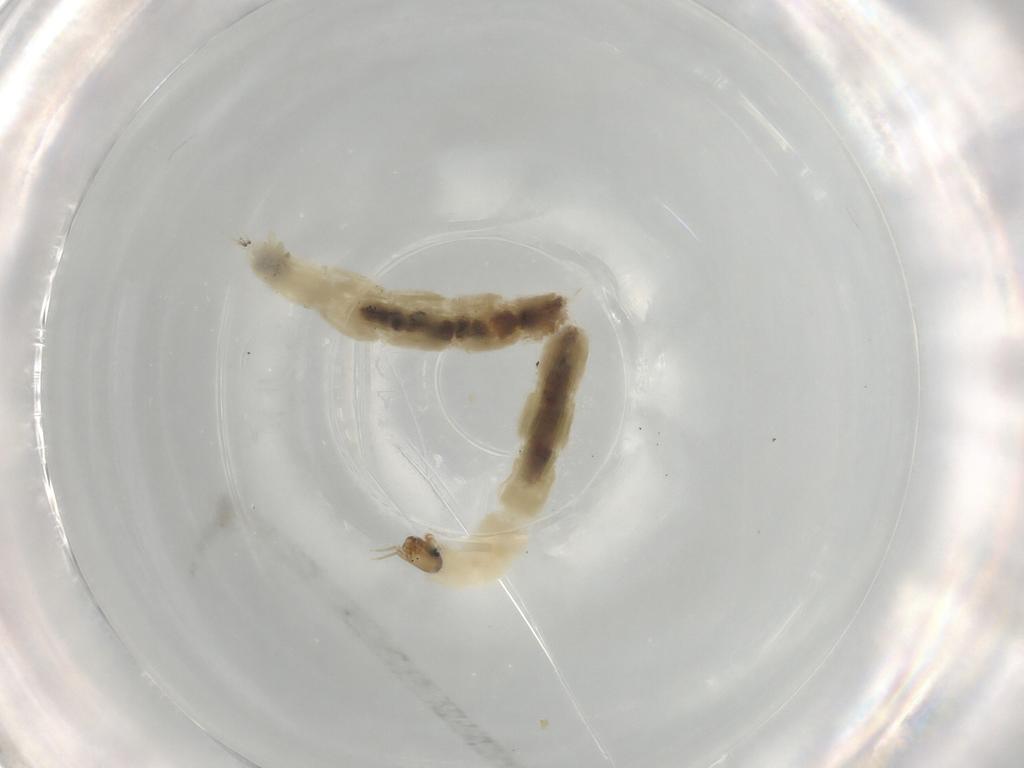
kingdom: Animalia
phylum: Arthropoda
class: Insecta
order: Diptera
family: Chironomidae
